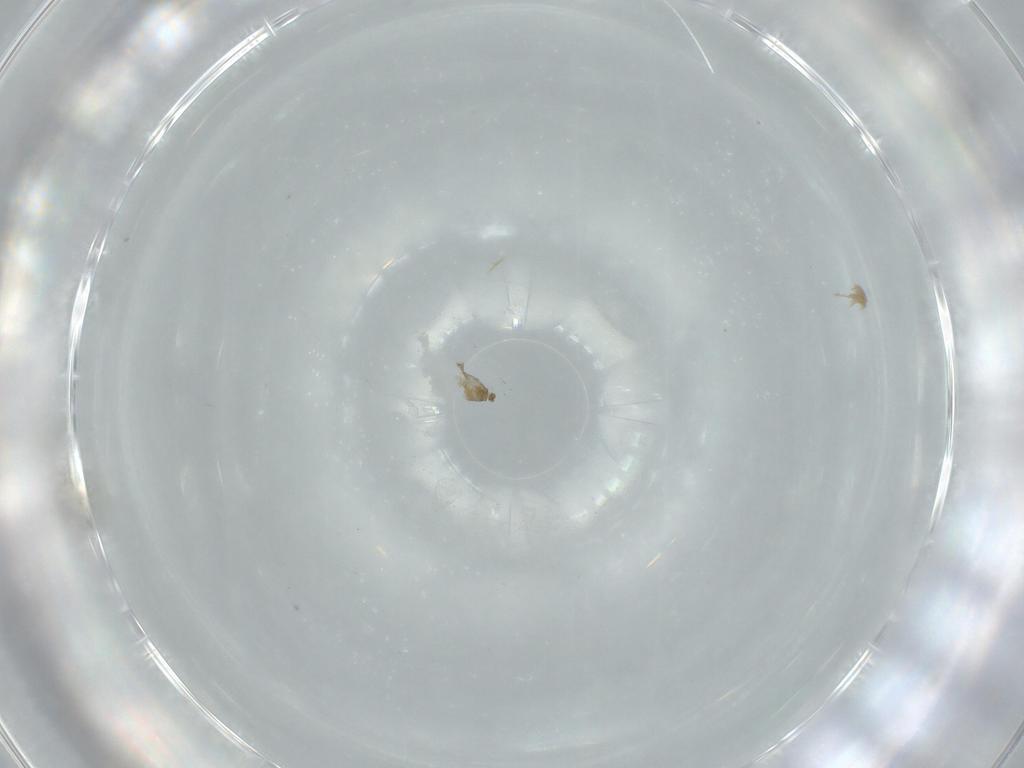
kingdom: Animalia
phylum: Arthropoda
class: Insecta
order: Diptera
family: Cecidomyiidae
